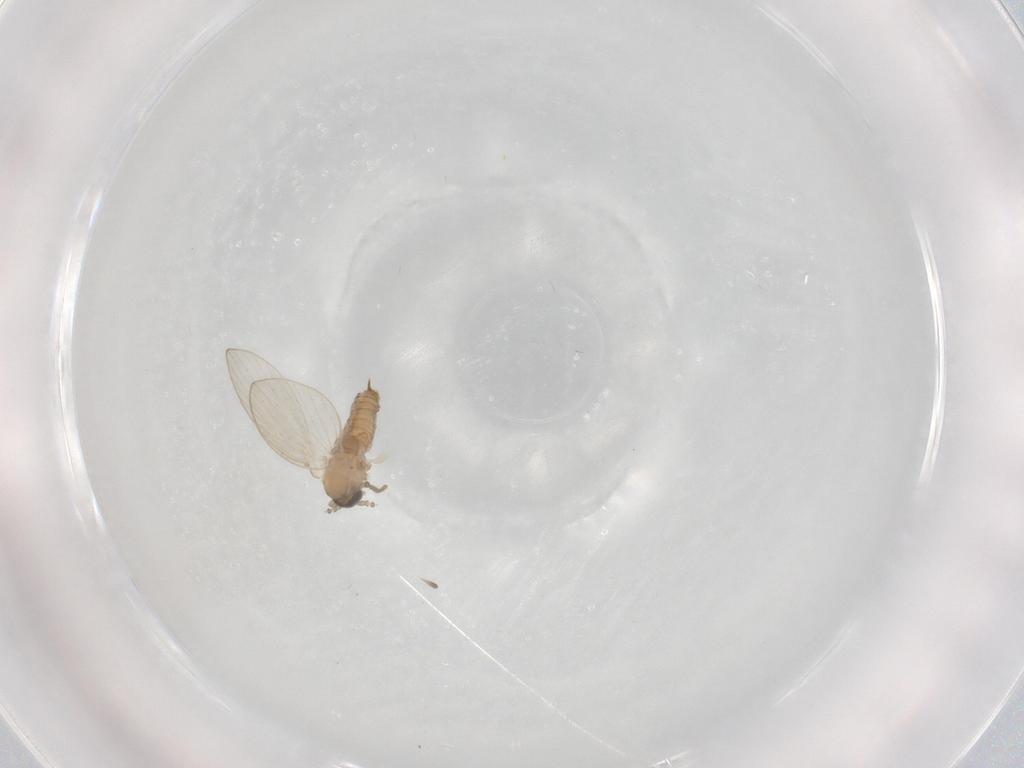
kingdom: Animalia
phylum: Arthropoda
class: Insecta
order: Diptera
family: Psychodidae
